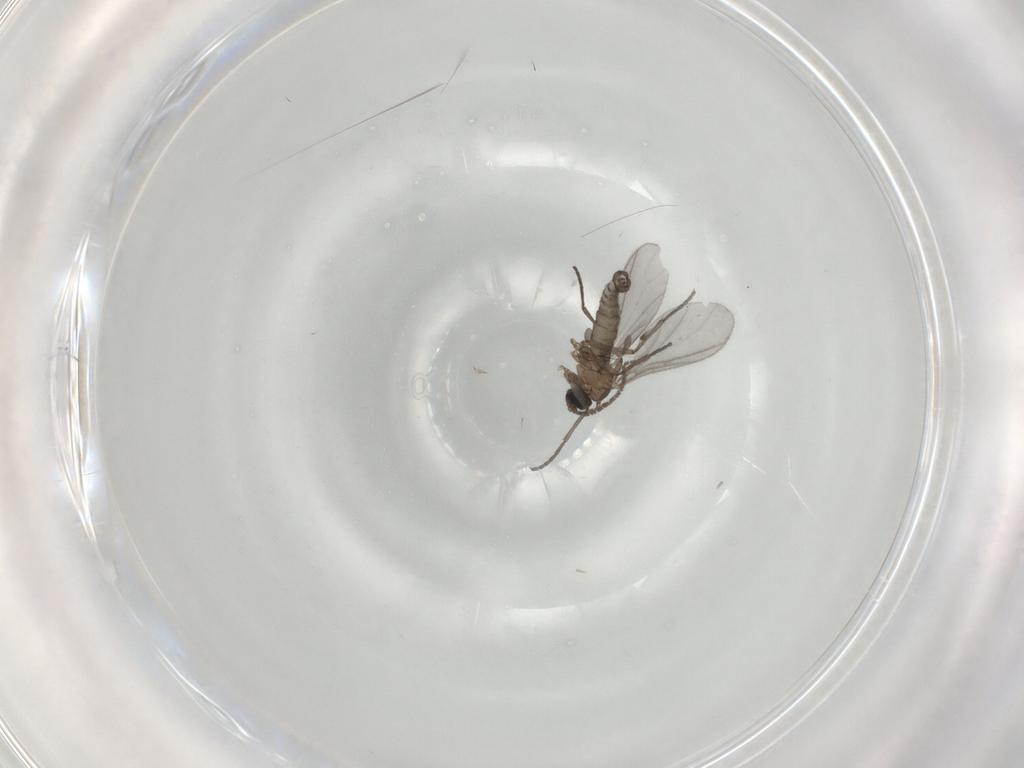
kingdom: Animalia
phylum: Arthropoda
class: Insecta
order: Diptera
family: Sciaridae
